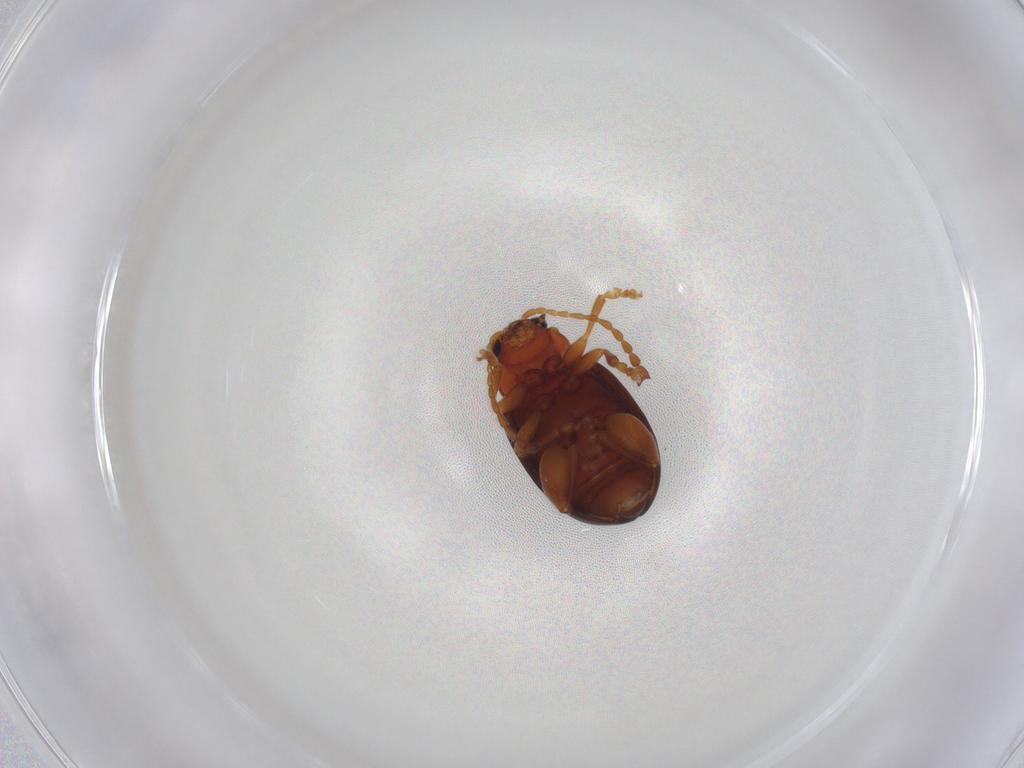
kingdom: Animalia
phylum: Arthropoda
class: Insecta
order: Coleoptera
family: Chrysomelidae
